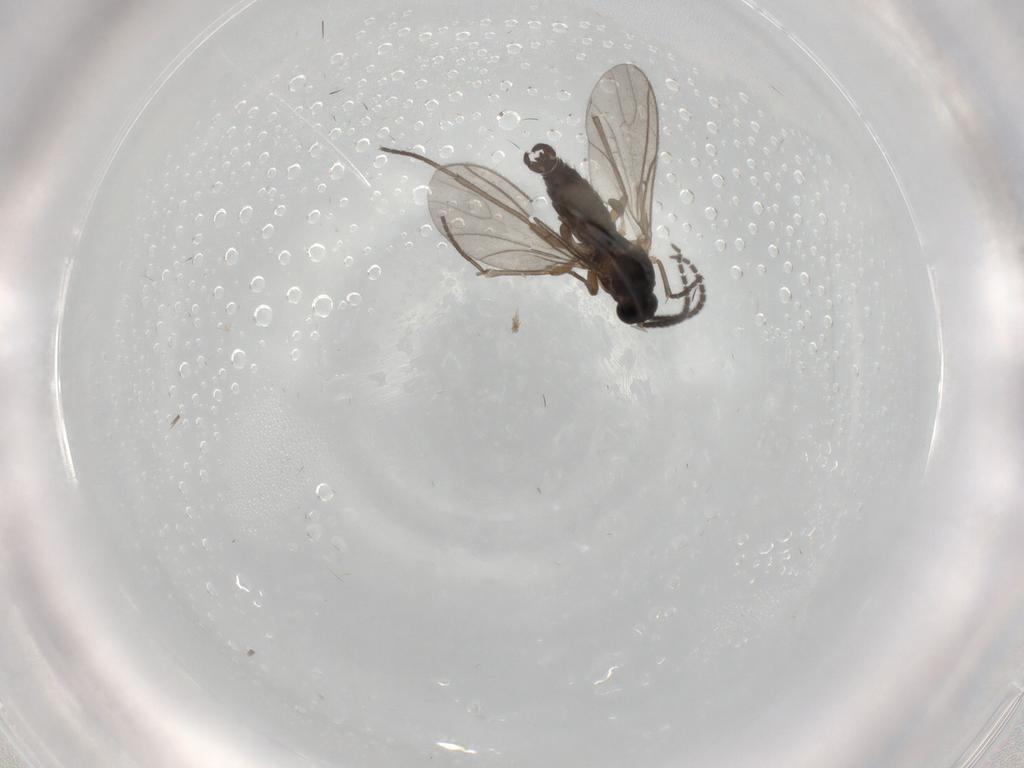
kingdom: Animalia
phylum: Arthropoda
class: Insecta
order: Diptera
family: Sciaridae
